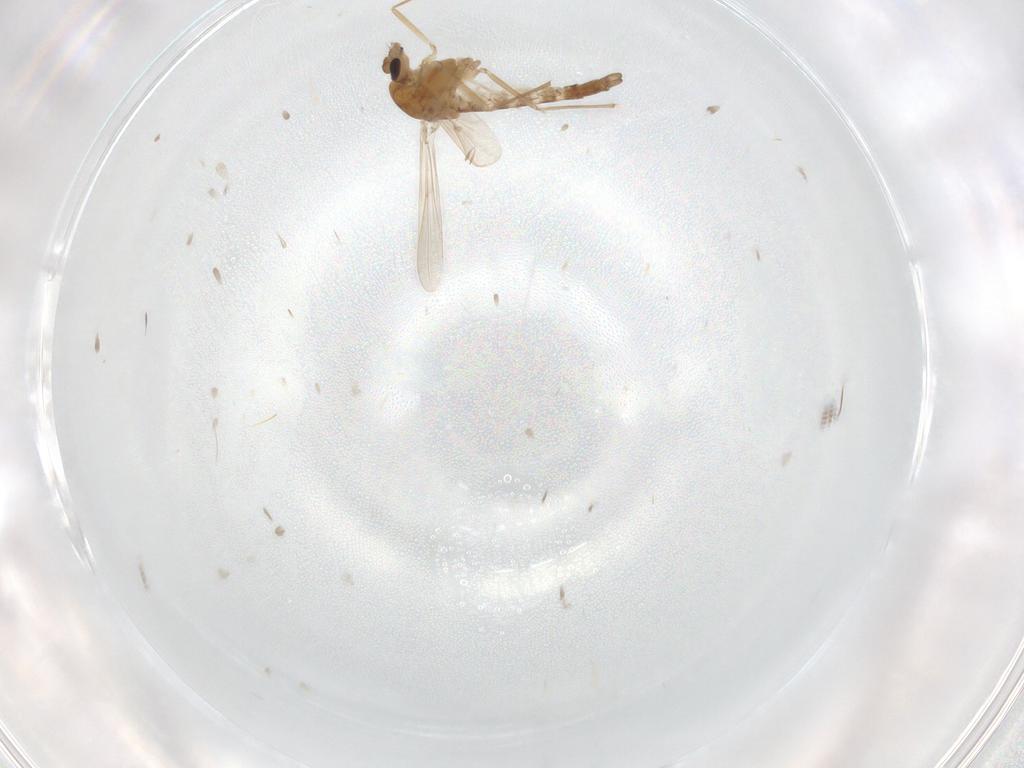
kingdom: Animalia
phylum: Arthropoda
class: Insecta
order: Diptera
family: Chironomidae
